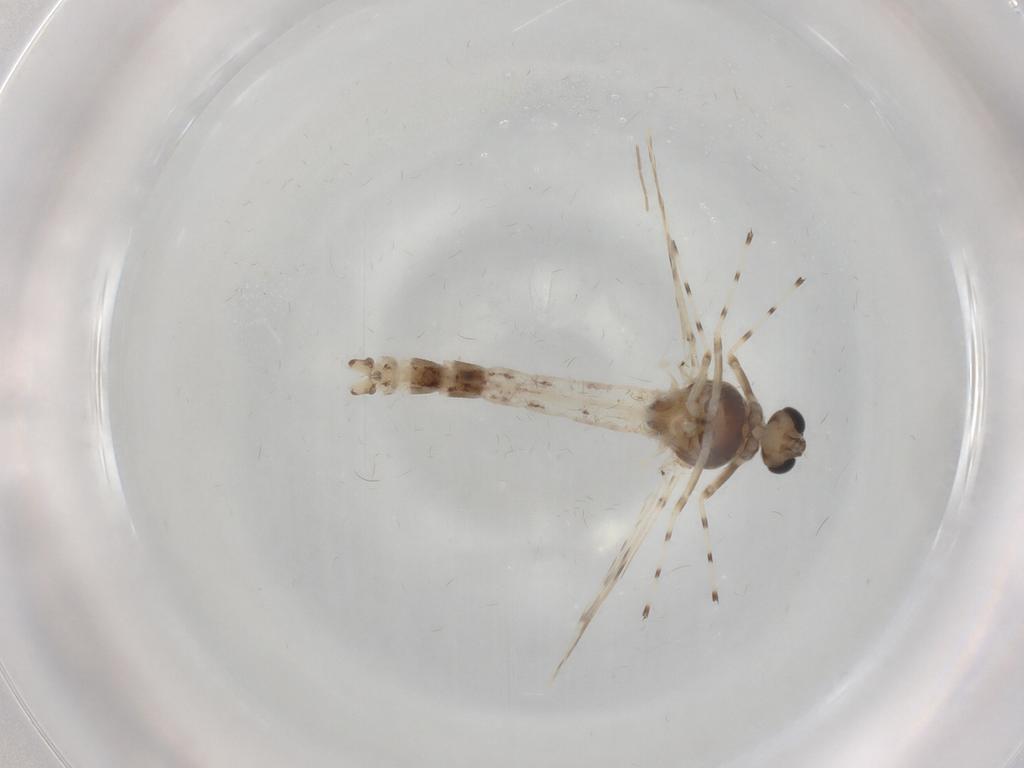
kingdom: Animalia
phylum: Arthropoda
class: Insecta
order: Diptera
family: Chironomidae
